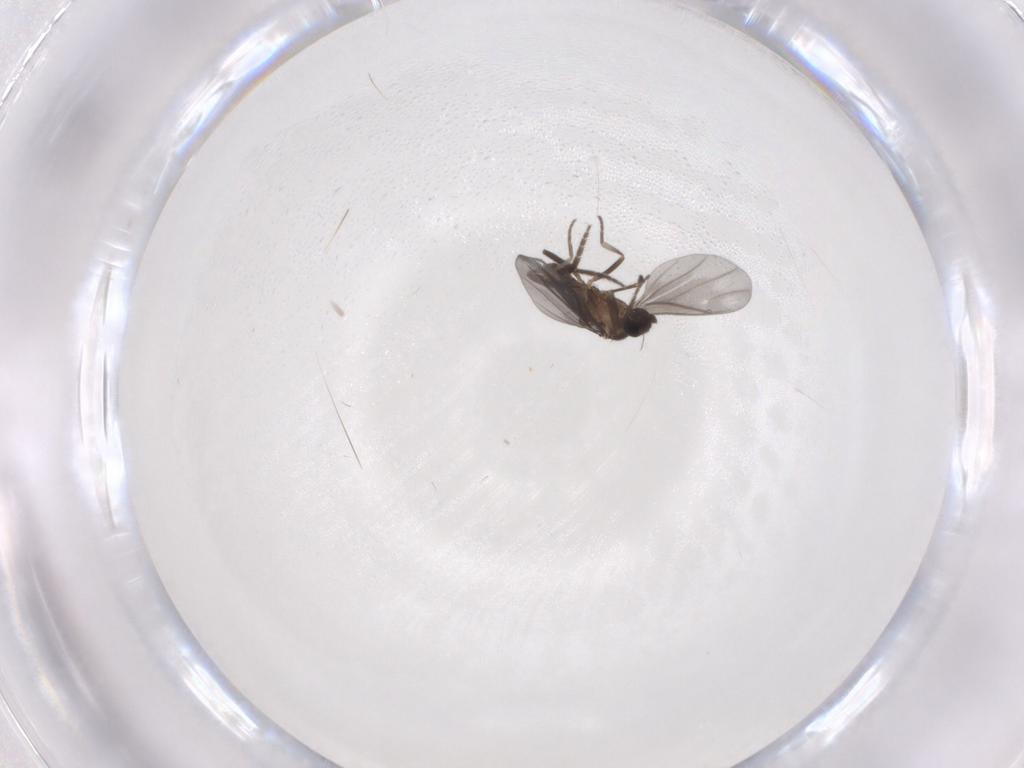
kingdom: Animalia
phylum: Arthropoda
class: Insecta
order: Diptera
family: Phoridae
